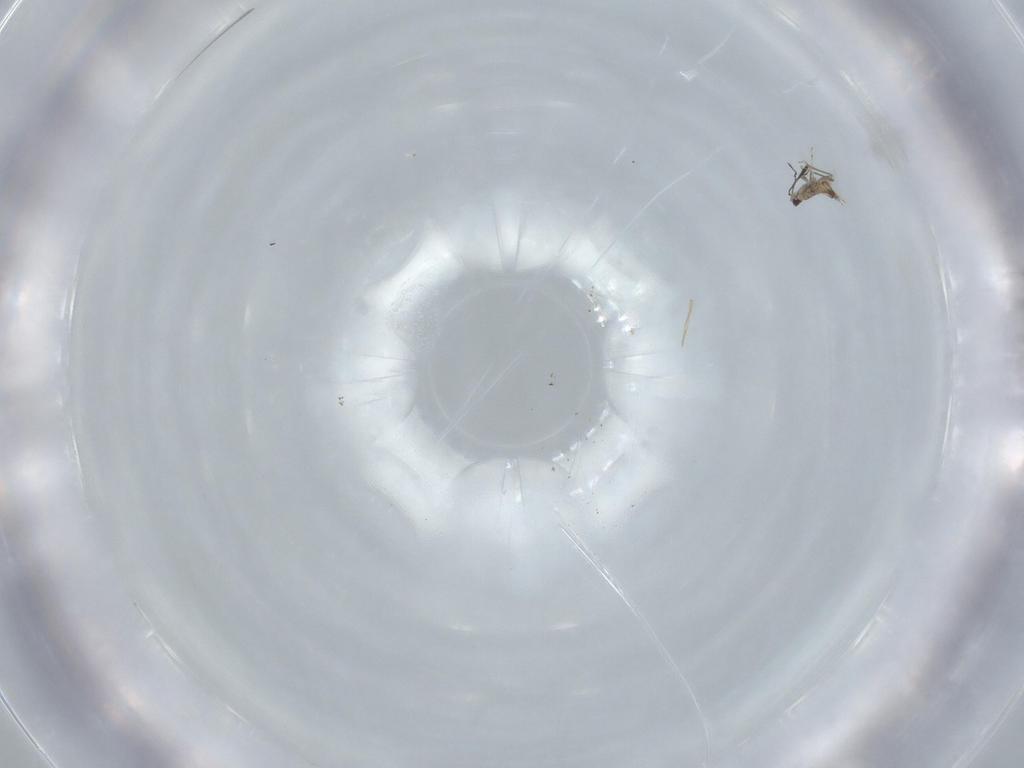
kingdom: Animalia
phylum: Arthropoda
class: Insecta
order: Hymenoptera
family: Mymaridae
